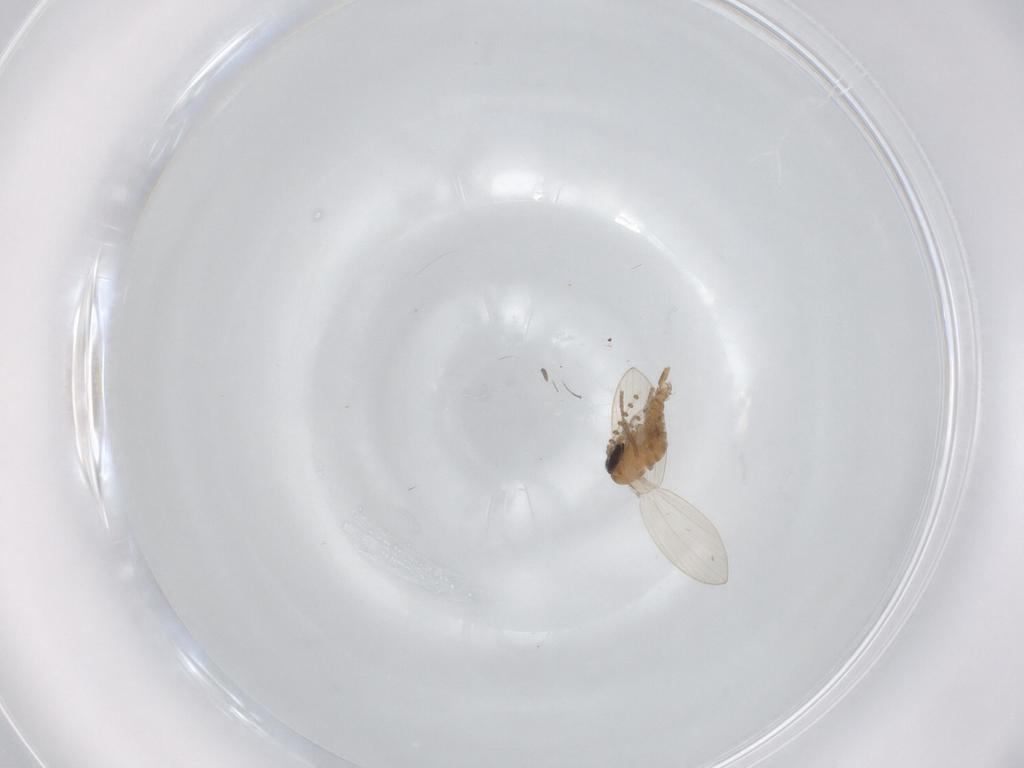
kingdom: Animalia
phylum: Arthropoda
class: Insecta
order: Diptera
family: Psychodidae
